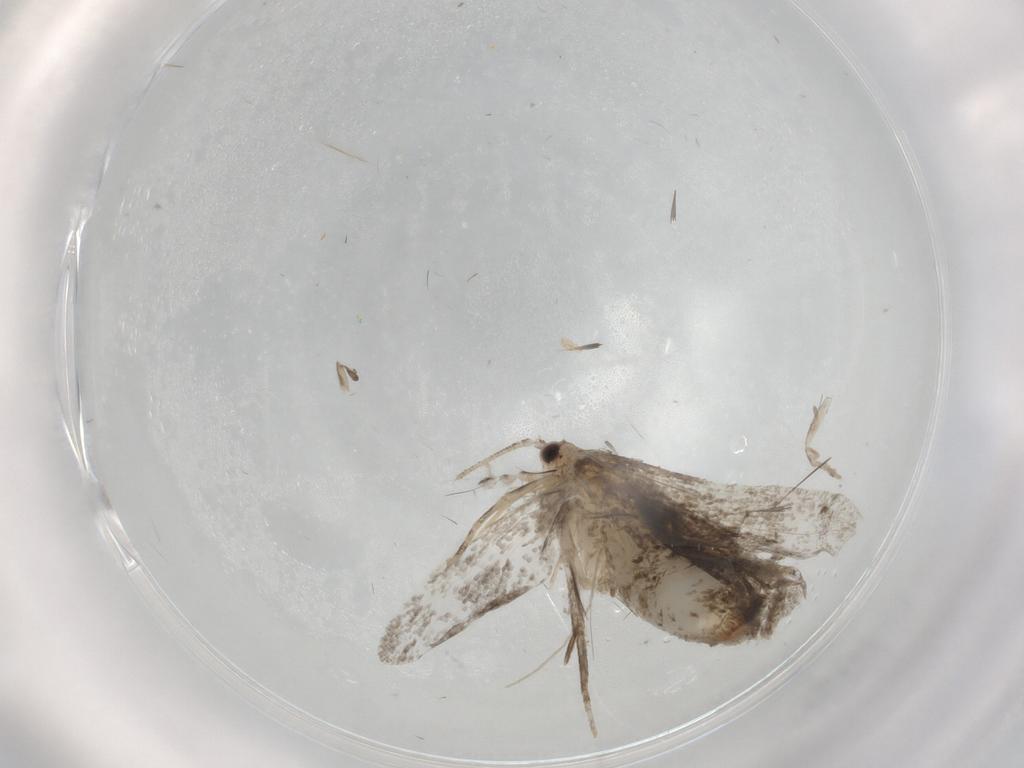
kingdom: Animalia
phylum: Arthropoda
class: Insecta
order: Lepidoptera
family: Tineidae
